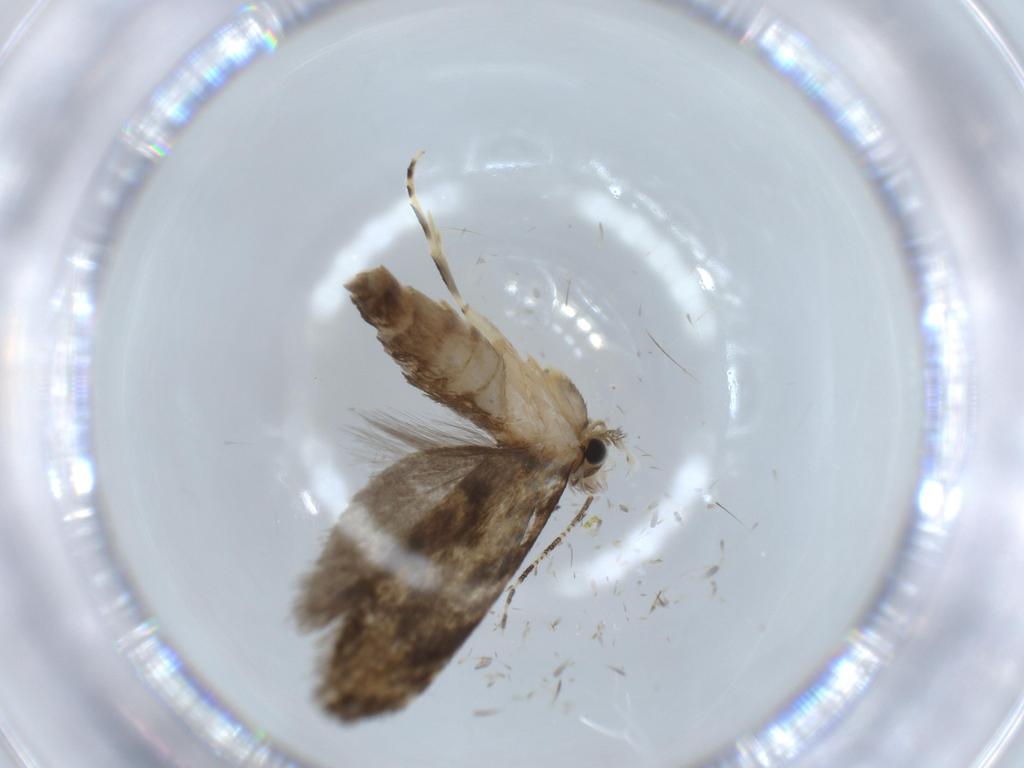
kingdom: Animalia
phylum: Arthropoda
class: Insecta
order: Lepidoptera
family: Tineidae
